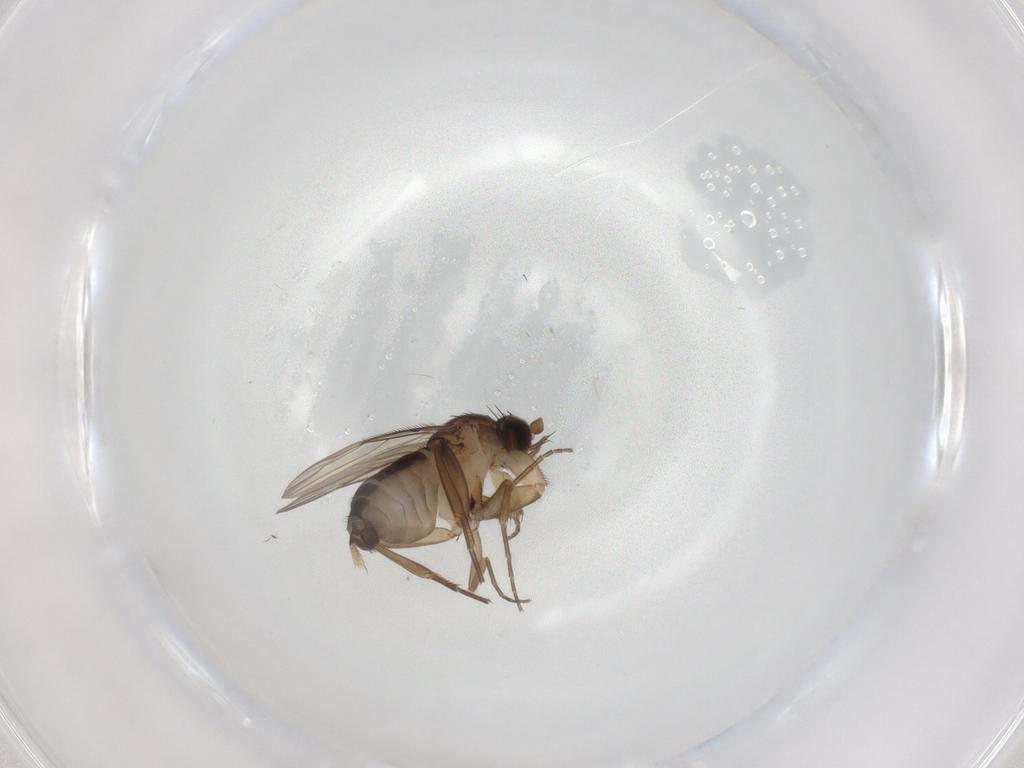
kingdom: Animalia
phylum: Arthropoda
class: Insecta
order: Diptera
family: Phoridae
